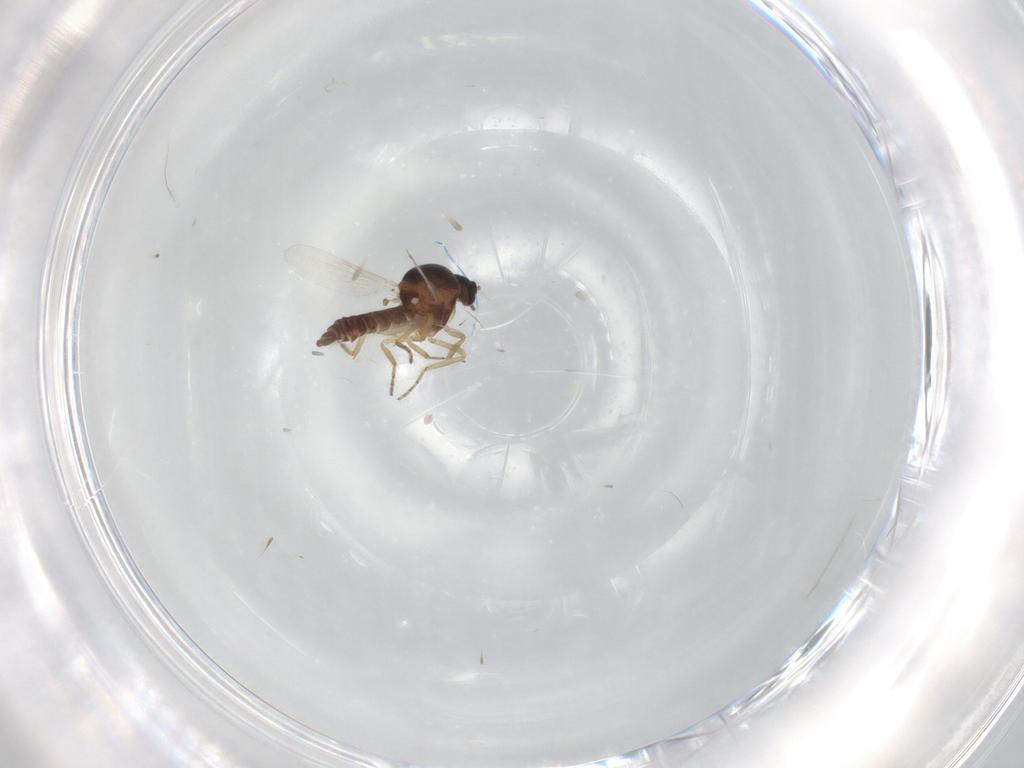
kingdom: Animalia
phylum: Arthropoda
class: Insecta
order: Diptera
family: Ceratopogonidae
